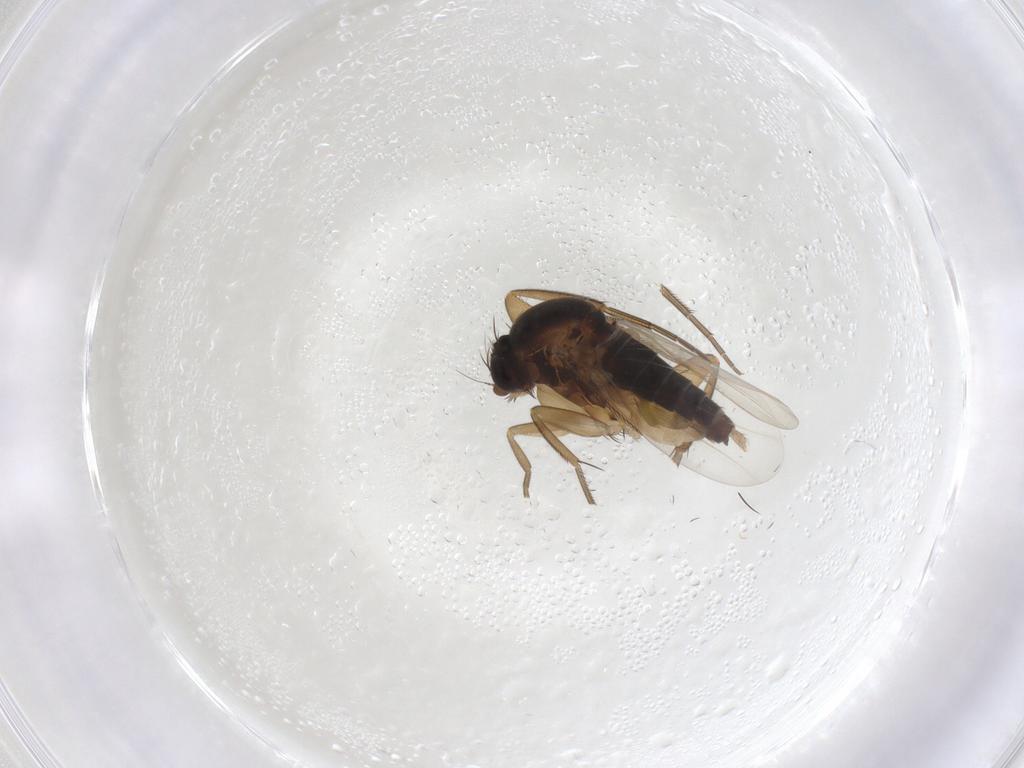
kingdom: Animalia
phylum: Arthropoda
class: Insecta
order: Diptera
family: Phoridae
